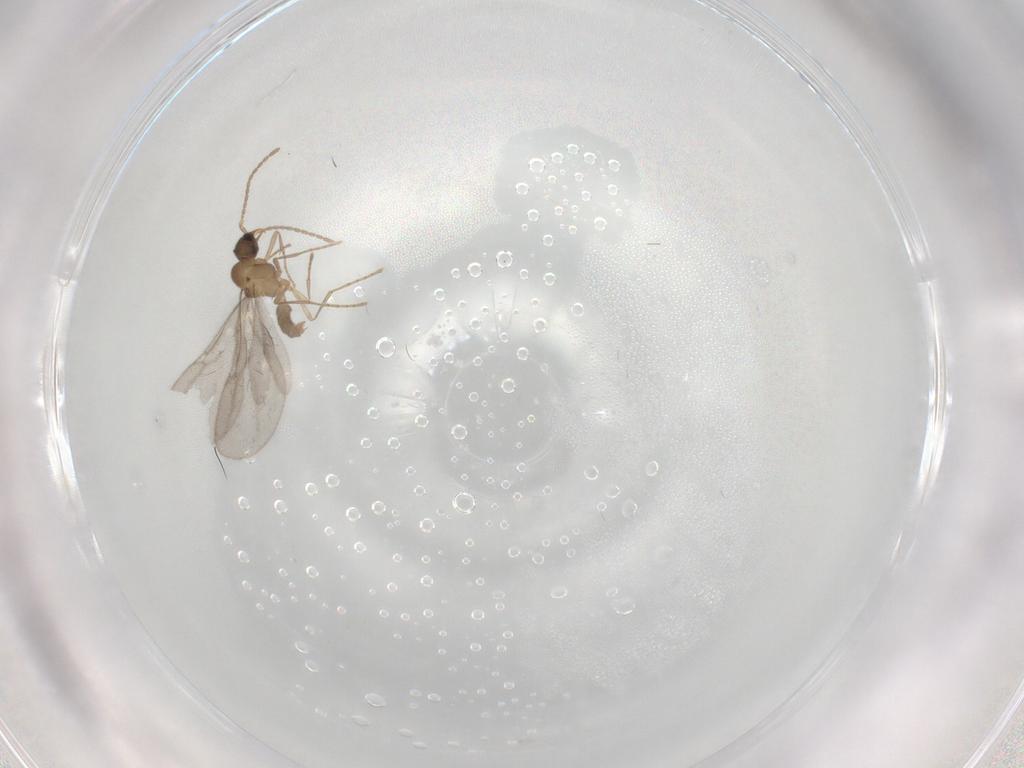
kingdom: Animalia
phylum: Arthropoda
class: Insecta
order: Hymenoptera
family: Formicidae
